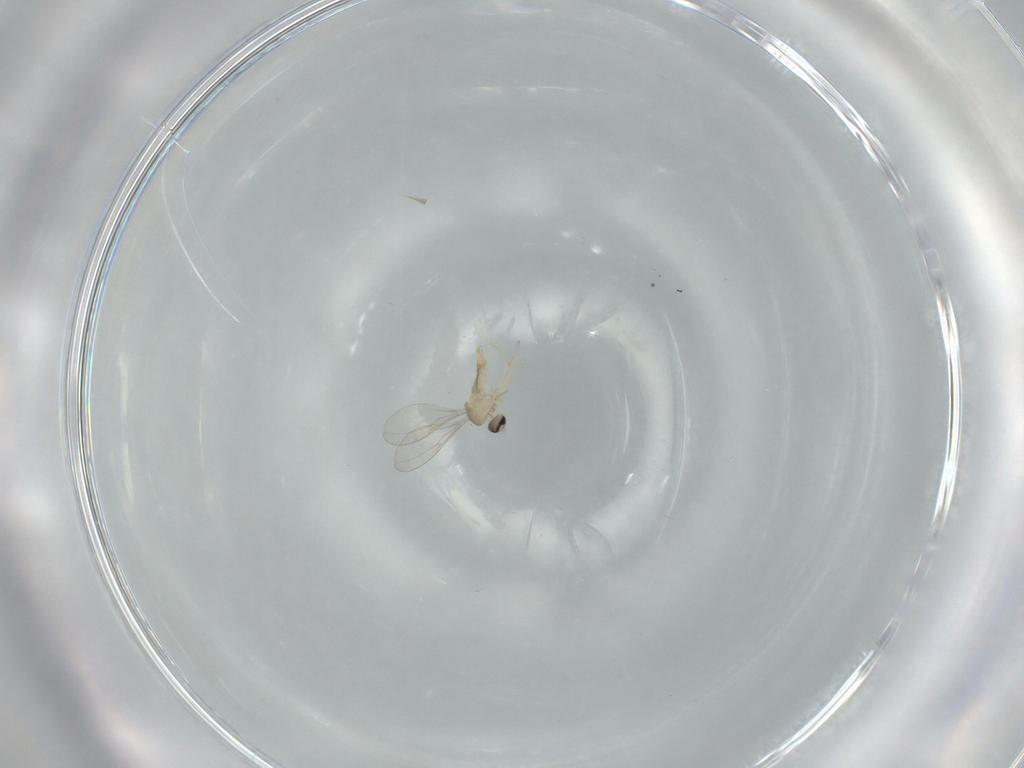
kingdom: Animalia
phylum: Arthropoda
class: Insecta
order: Diptera
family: Cecidomyiidae
